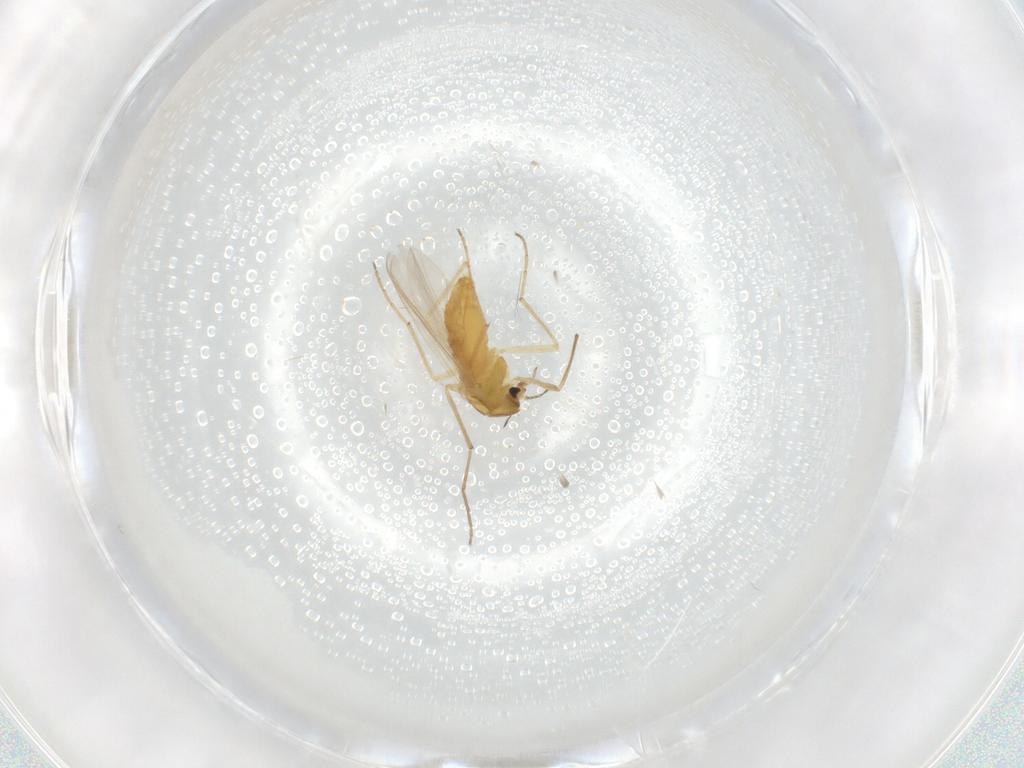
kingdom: Animalia
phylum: Arthropoda
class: Insecta
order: Diptera
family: Chironomidae
